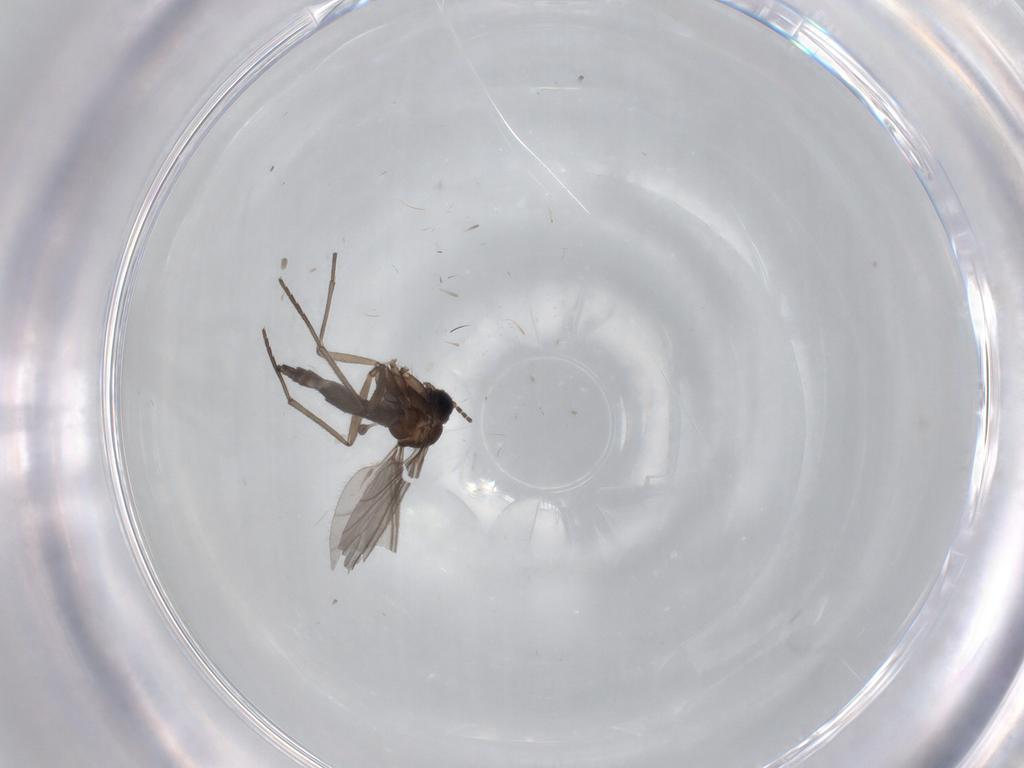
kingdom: Animalia
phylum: Arthropoda
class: Insecta
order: Diptera
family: Sciaridae
